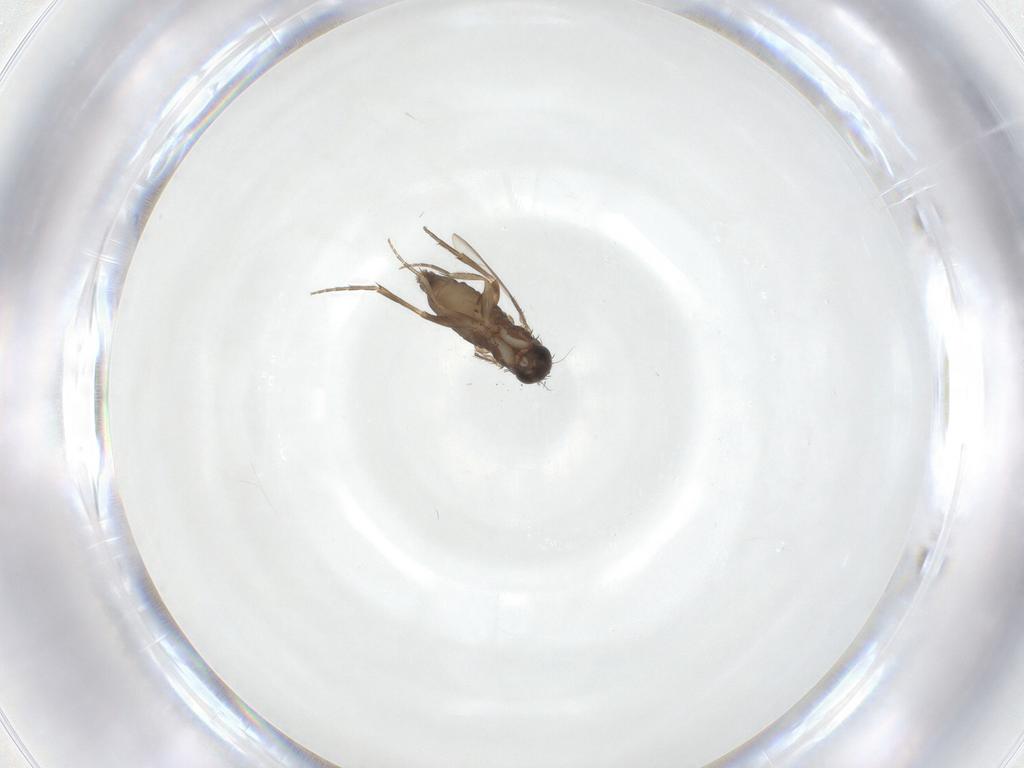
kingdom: Animalia
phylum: Arthropoda
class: Insecta
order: Diptera
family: Phoridae
